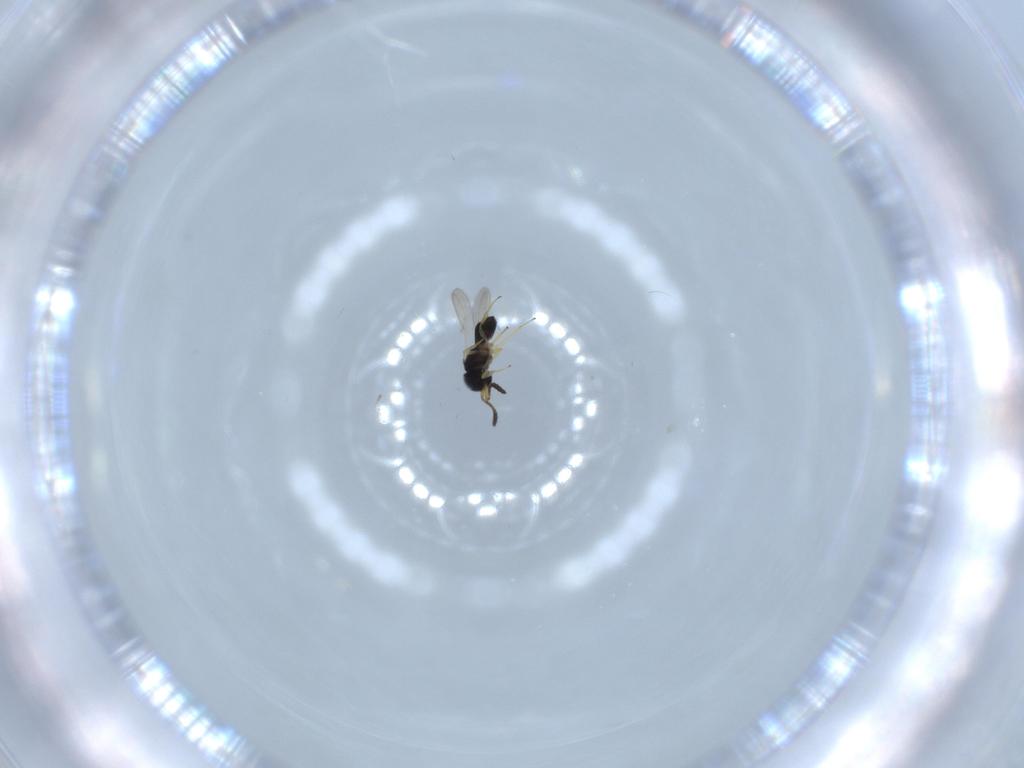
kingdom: Animalia
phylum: Arthropoda
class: Insecta
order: Hymenoptera
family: Scelionidae
